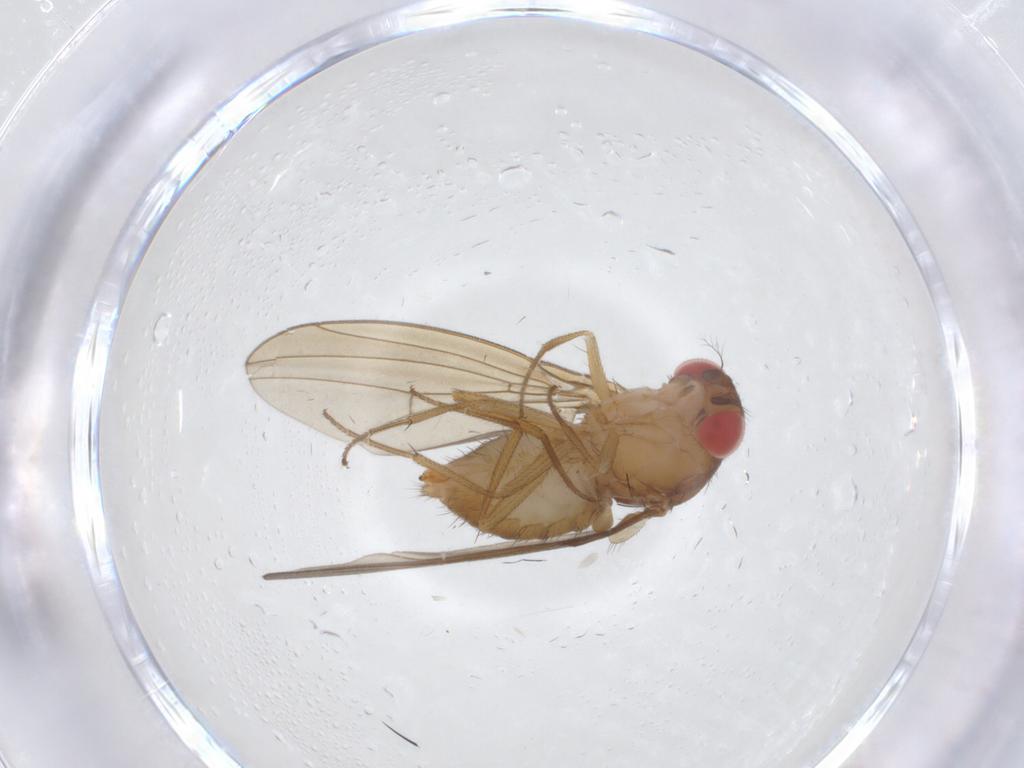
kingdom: Animalia
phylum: Arthropoda
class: Insecta
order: Diptera
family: Drosophilidae
